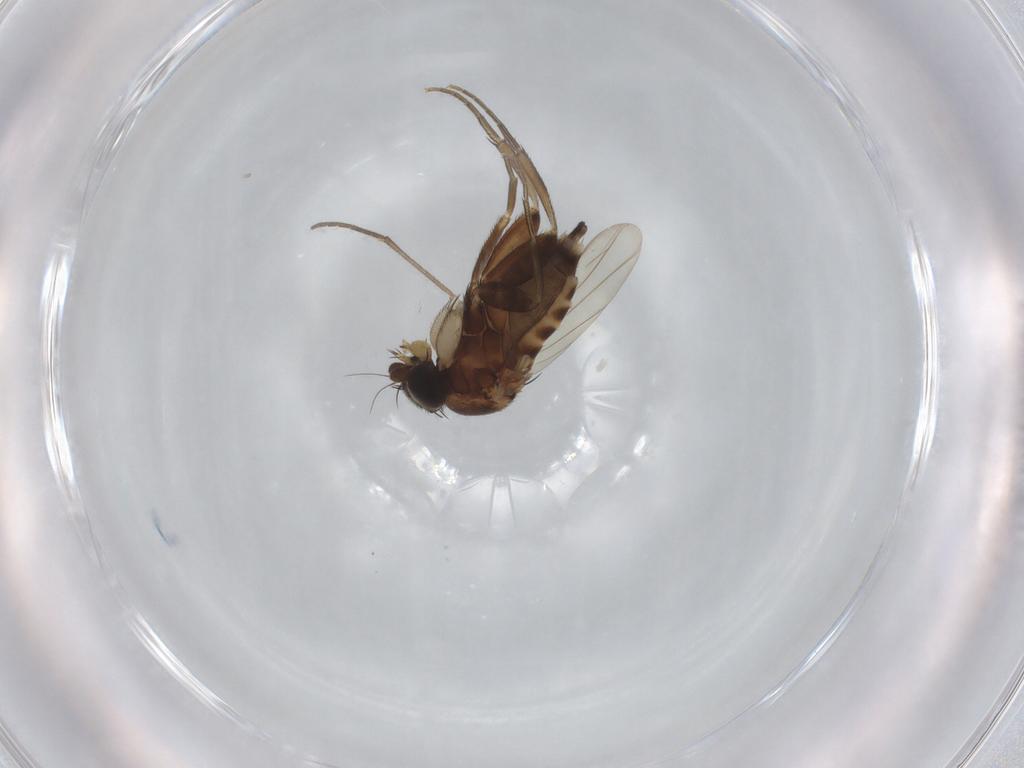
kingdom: Animalia
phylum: Arthropoda
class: Insecta
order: Diptera
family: Phoridae
